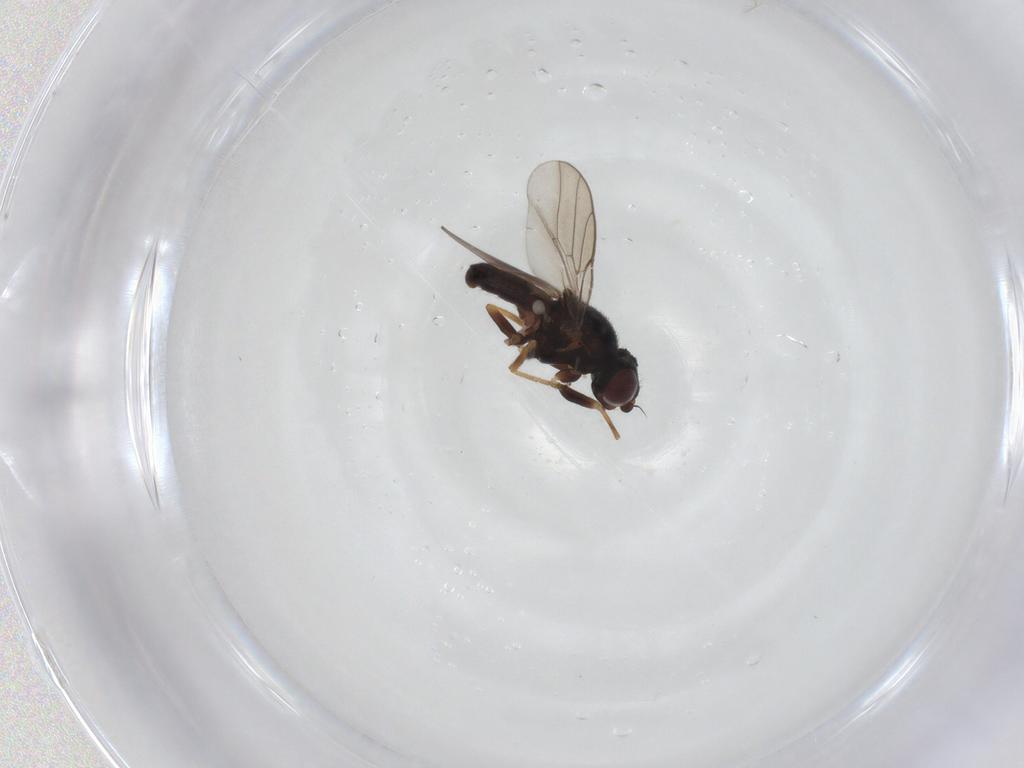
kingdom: Animalia
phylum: Arthropoda
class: Insecta
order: Diptera
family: Chloropidae
